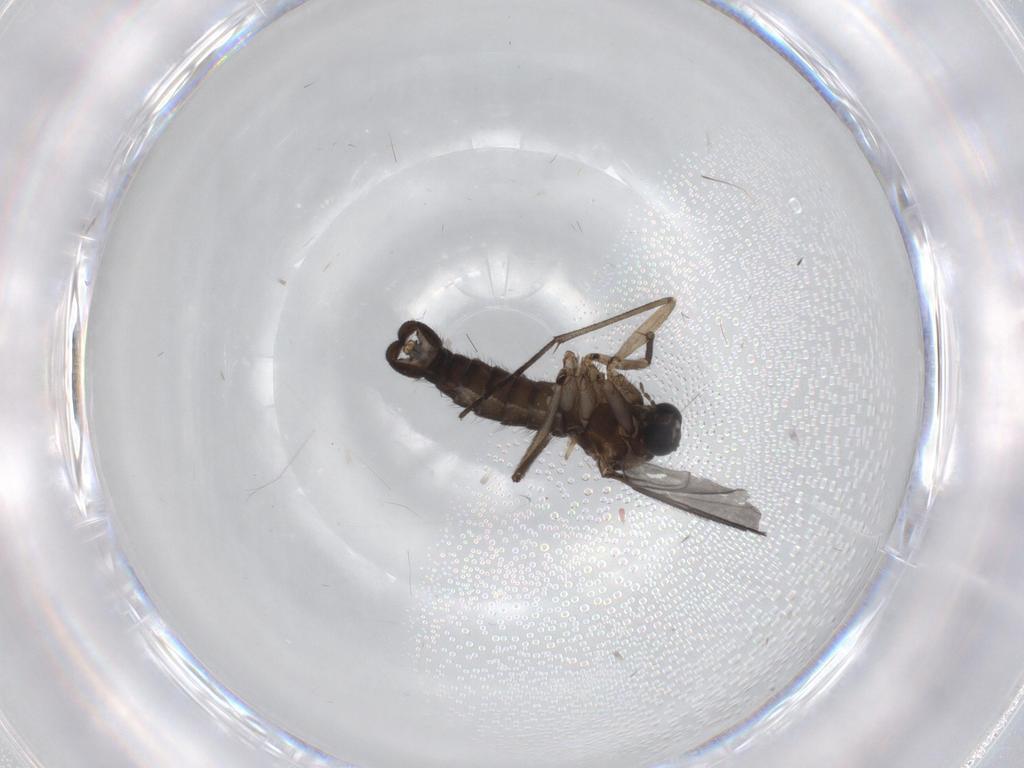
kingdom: Animalia
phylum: Arthropoda
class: Insecta
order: Diptera
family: Sciaridae
